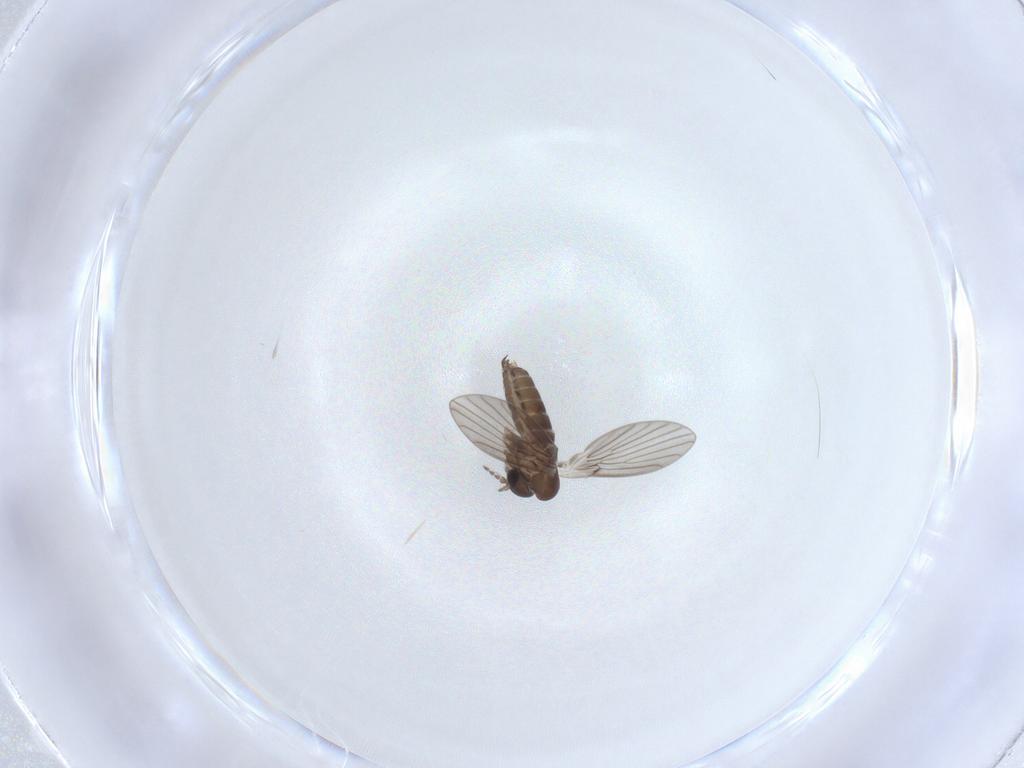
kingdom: Animalia
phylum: Arthropoda
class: Insecta
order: Diptera
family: Psychodidae
